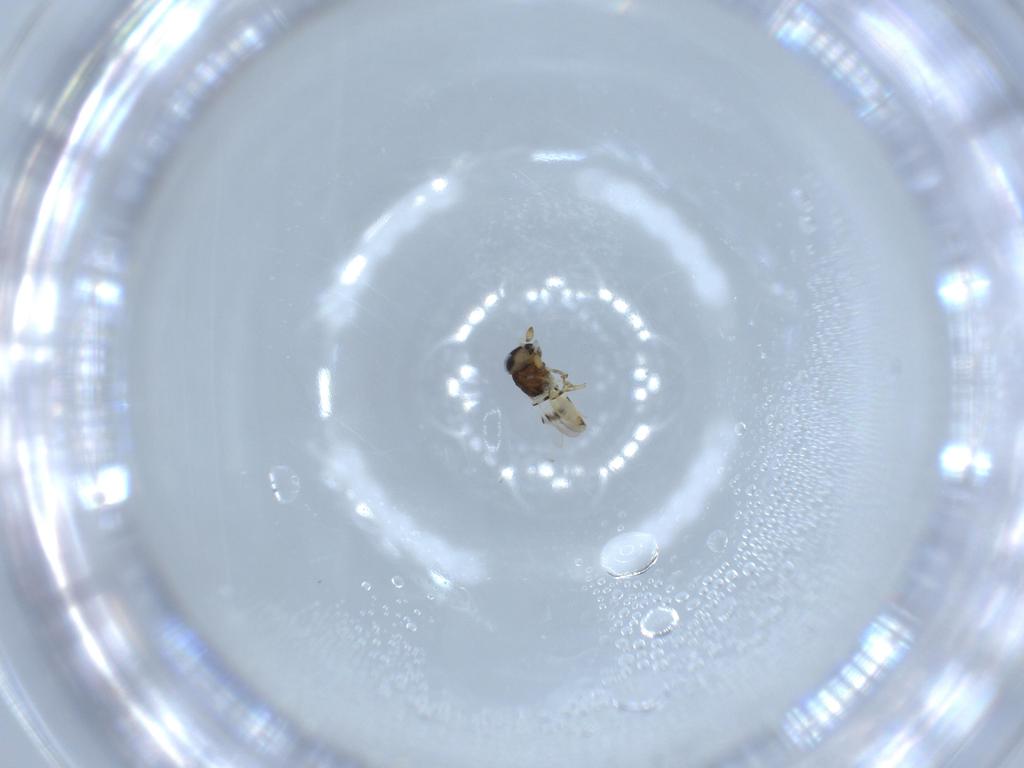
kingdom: Animalia
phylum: Arthropoda
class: Insecta
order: Hymenoptera
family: Scelionidae
